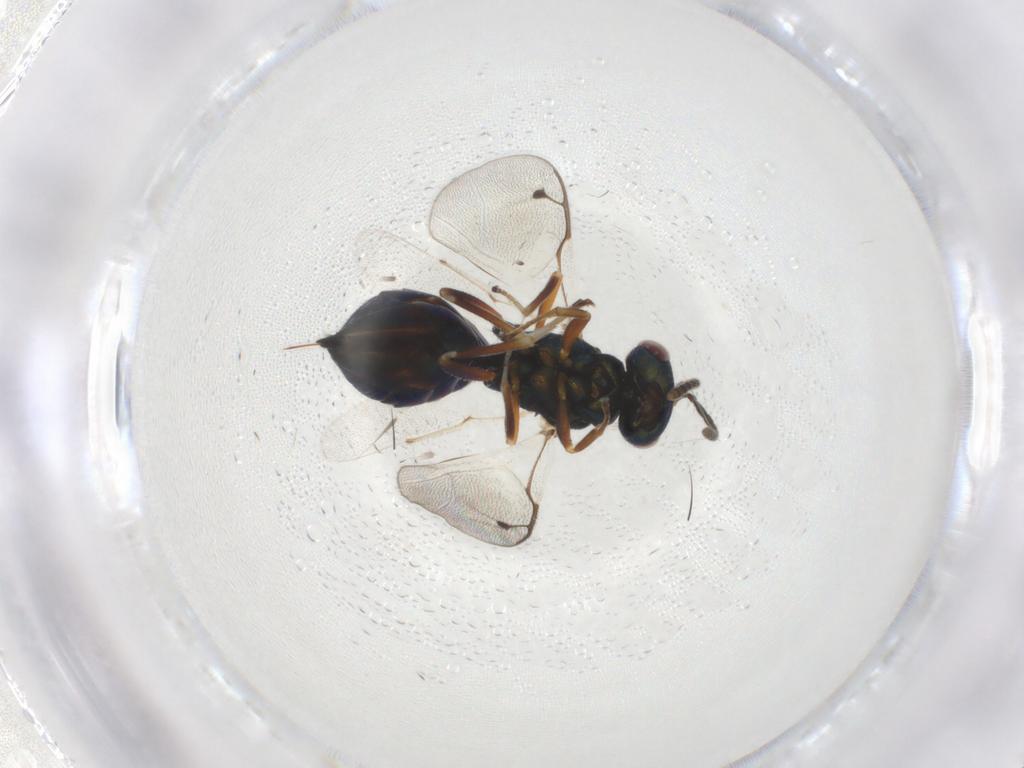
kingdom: Animalia
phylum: Arthropoda
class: Insecta
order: Hymenoptera
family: Pteromalidae
